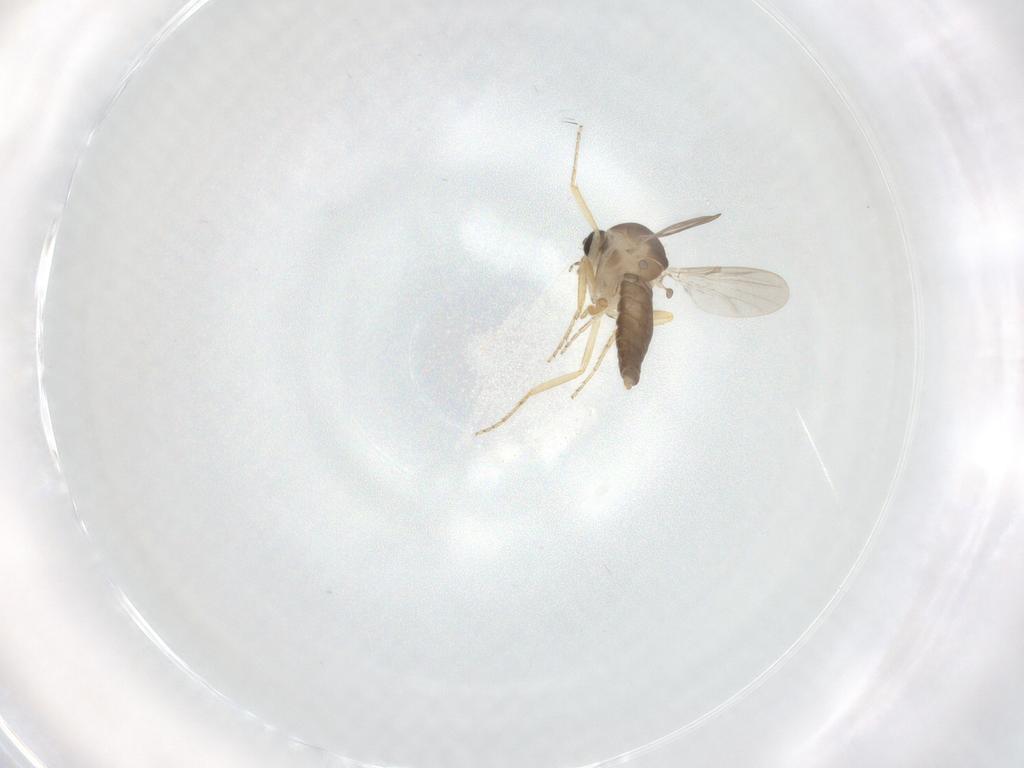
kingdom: Animalia
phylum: Arthropoda
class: Insecta
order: Diptera
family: Ceratopogonidae
